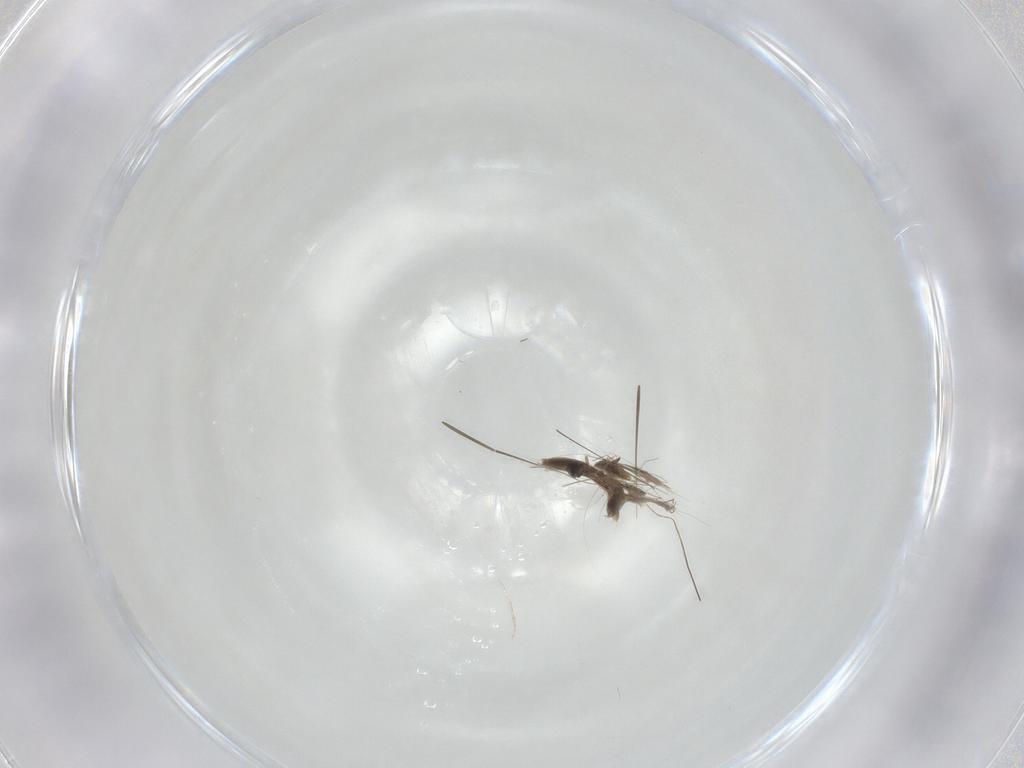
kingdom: Animalia
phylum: Arthropoda
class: Insecta
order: Diptera
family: Cecidomyiidae
